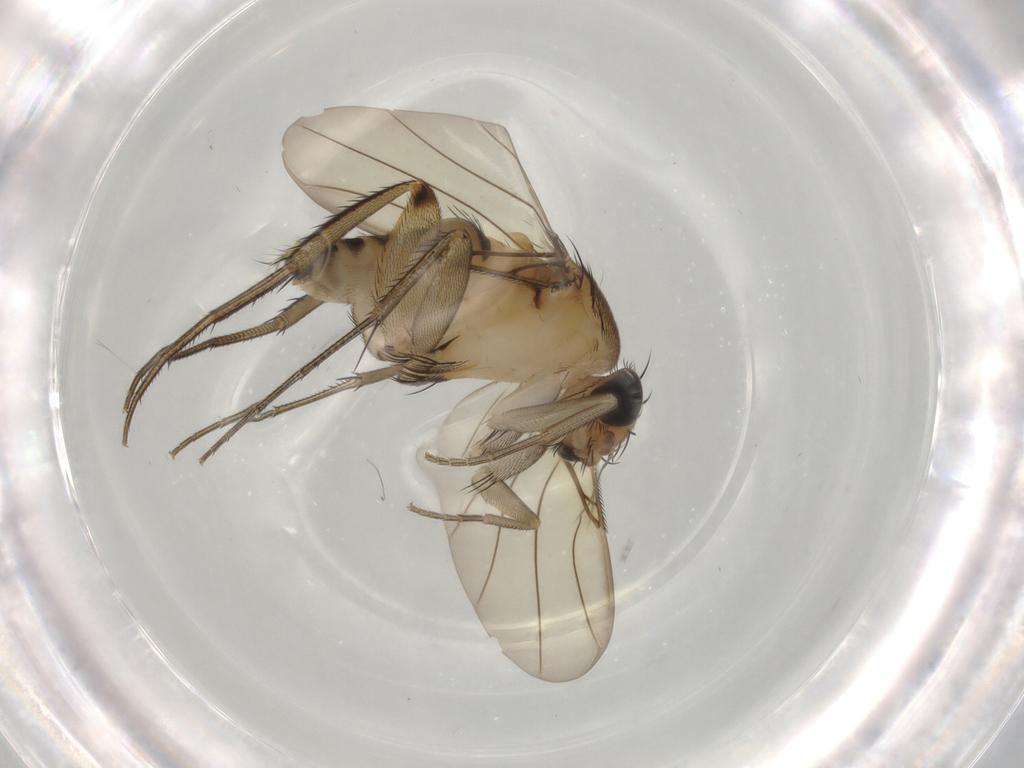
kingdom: Animalia
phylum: Arthropoda
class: Insecta
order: Diptera
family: Phoridae
